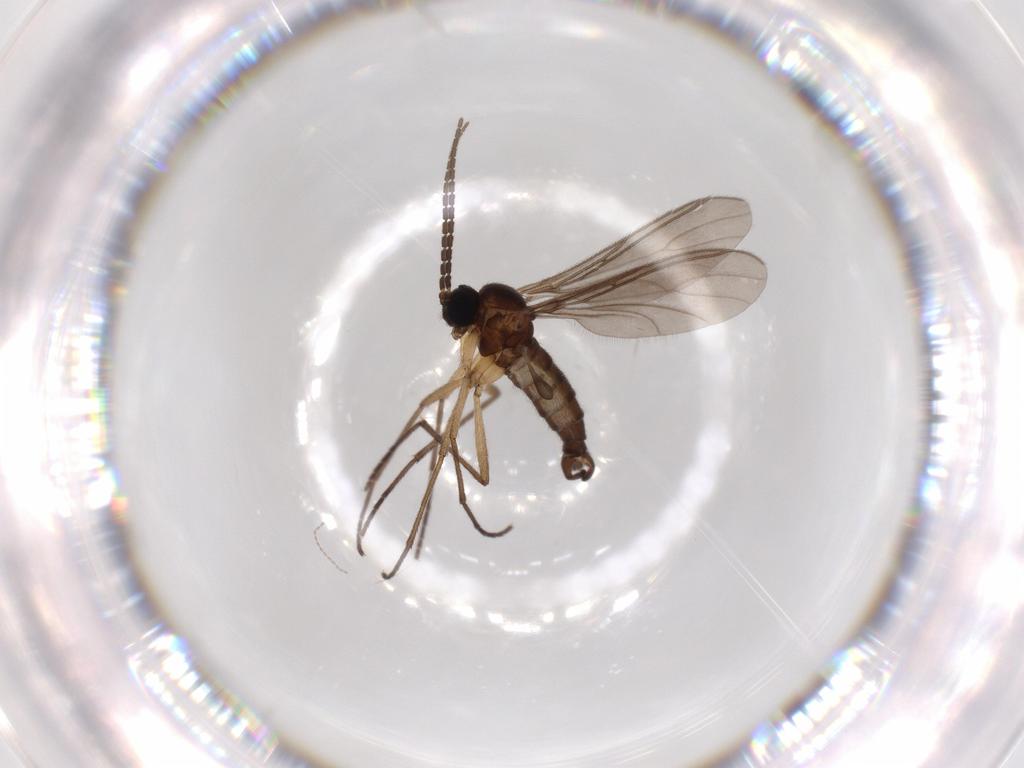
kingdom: Animalia
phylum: Arthropoda
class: Insecta
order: Diptera
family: Sciaridae
